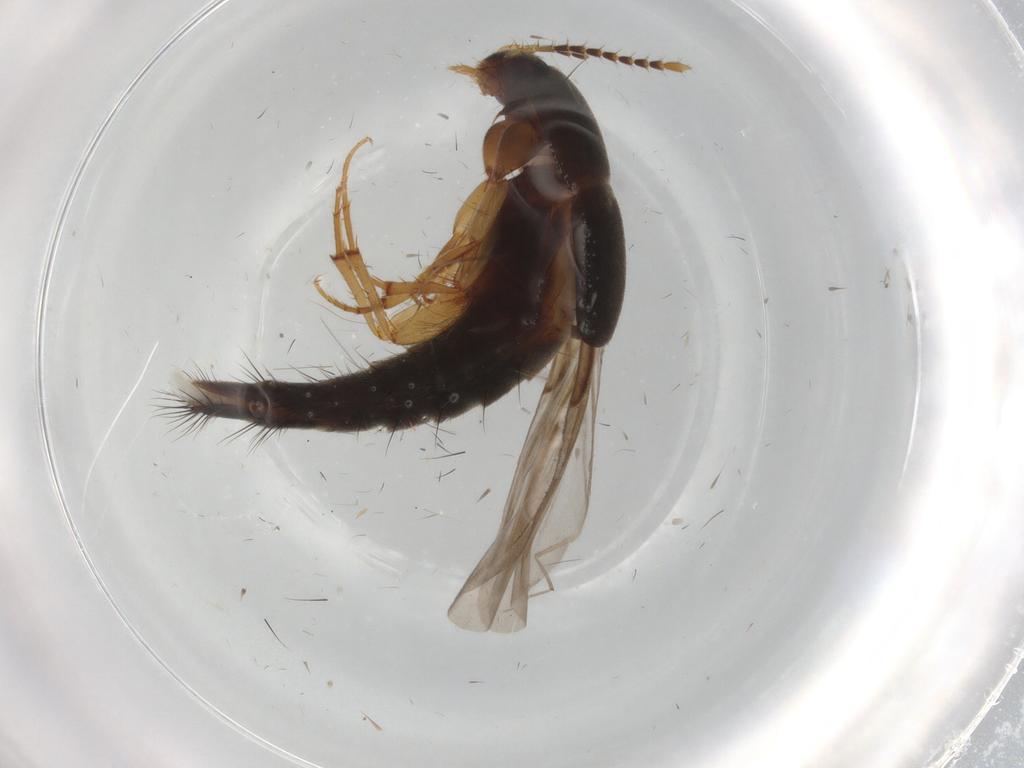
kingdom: Animalia
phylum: Arthropoda
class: Insecta
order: Coleoptera
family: Staphylinidae
